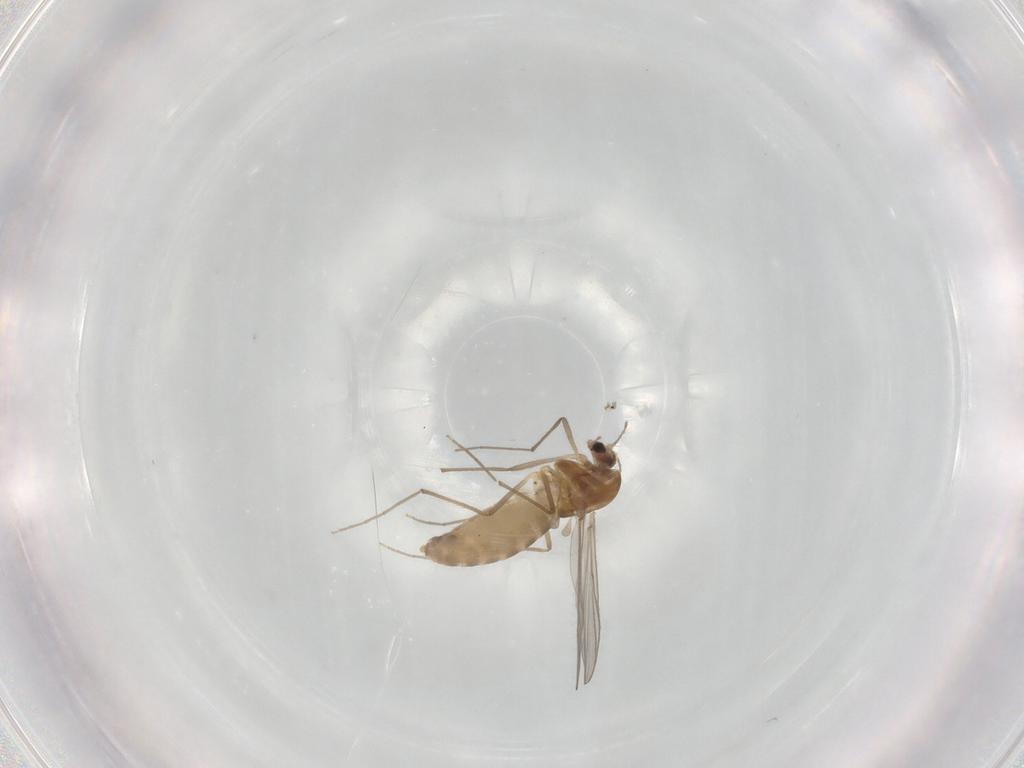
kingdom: Animalia
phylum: Arthropoda
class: Insecta
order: Diptera
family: Chironomidae
